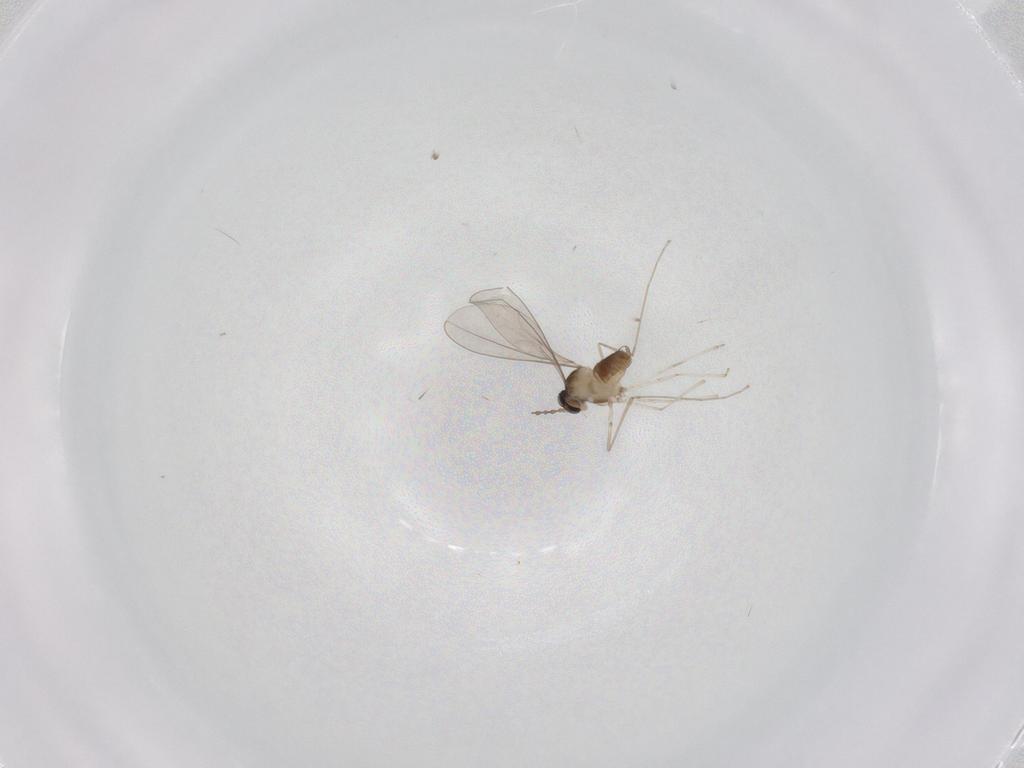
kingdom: Animalia
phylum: Arthropoda
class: Insecta
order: Diptera
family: Cecidomyiidae
